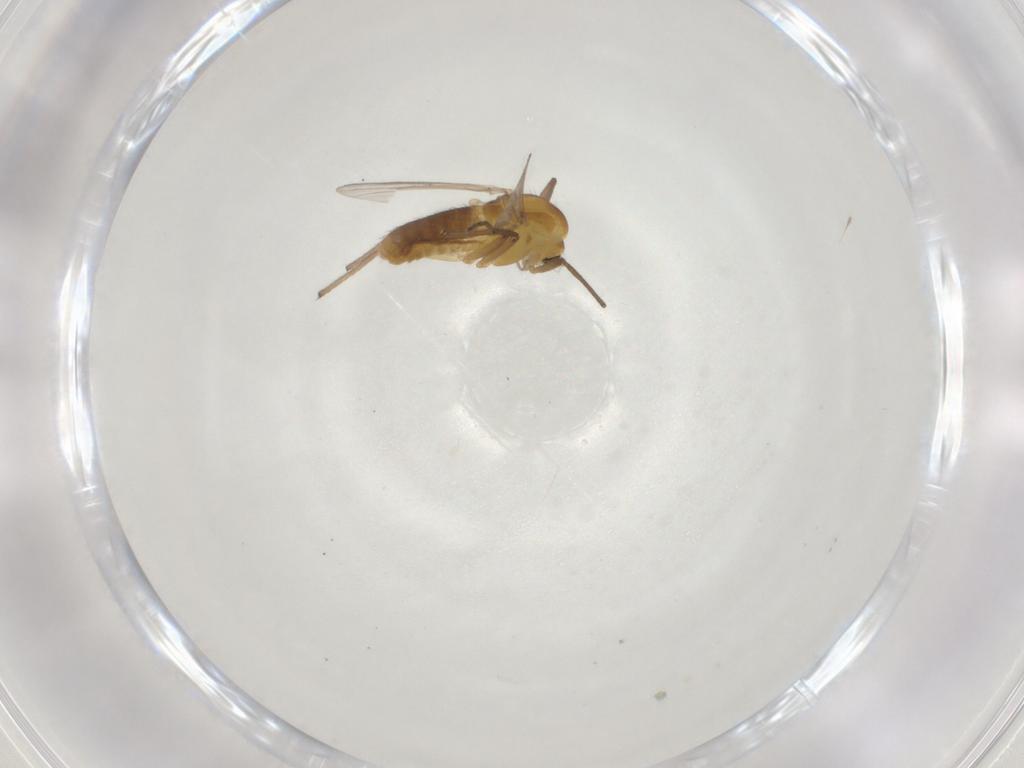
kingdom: Animalia
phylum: Arthropoda
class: Insecta
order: Diptera
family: Chironomidae
